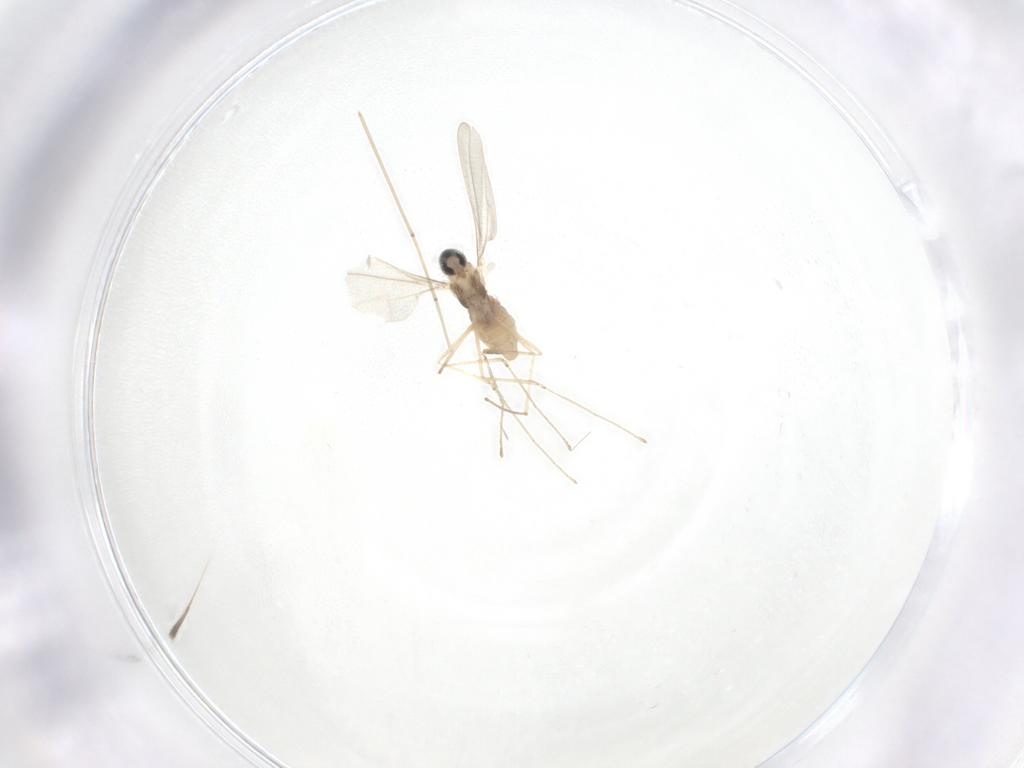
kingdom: Animalia
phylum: Arthropoda
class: Insecta
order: Diptera
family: Cecidomyiidae
